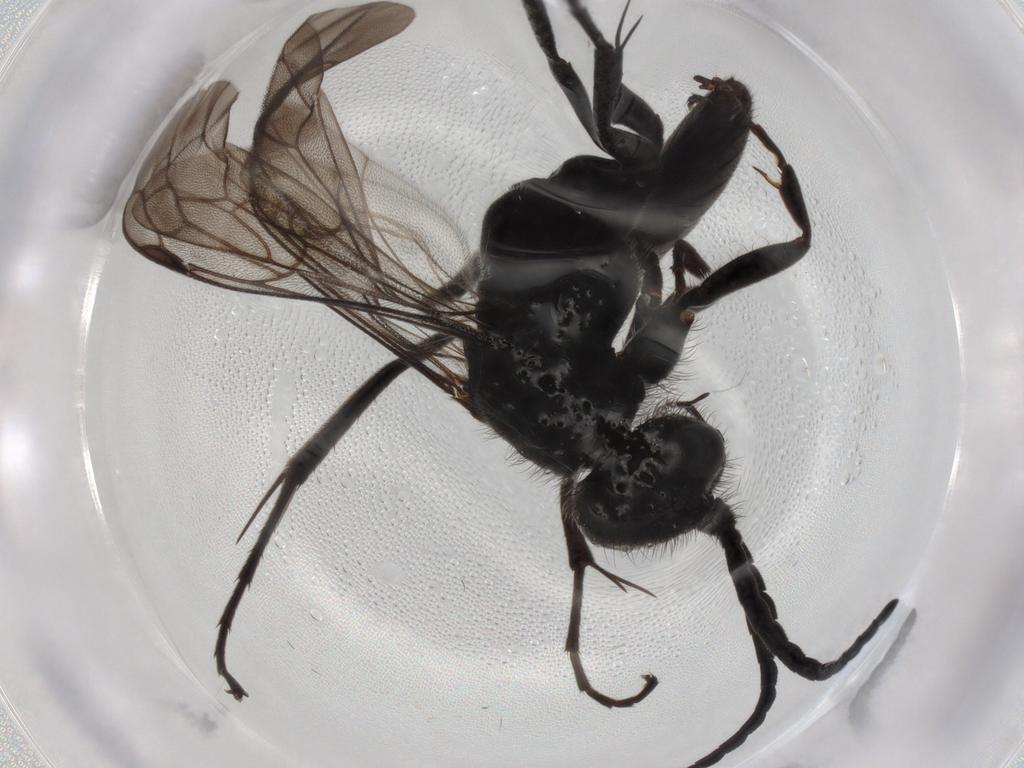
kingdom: Animalia
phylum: Arthropoda
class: Insecta
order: Hymenoptera
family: Pompilidae
